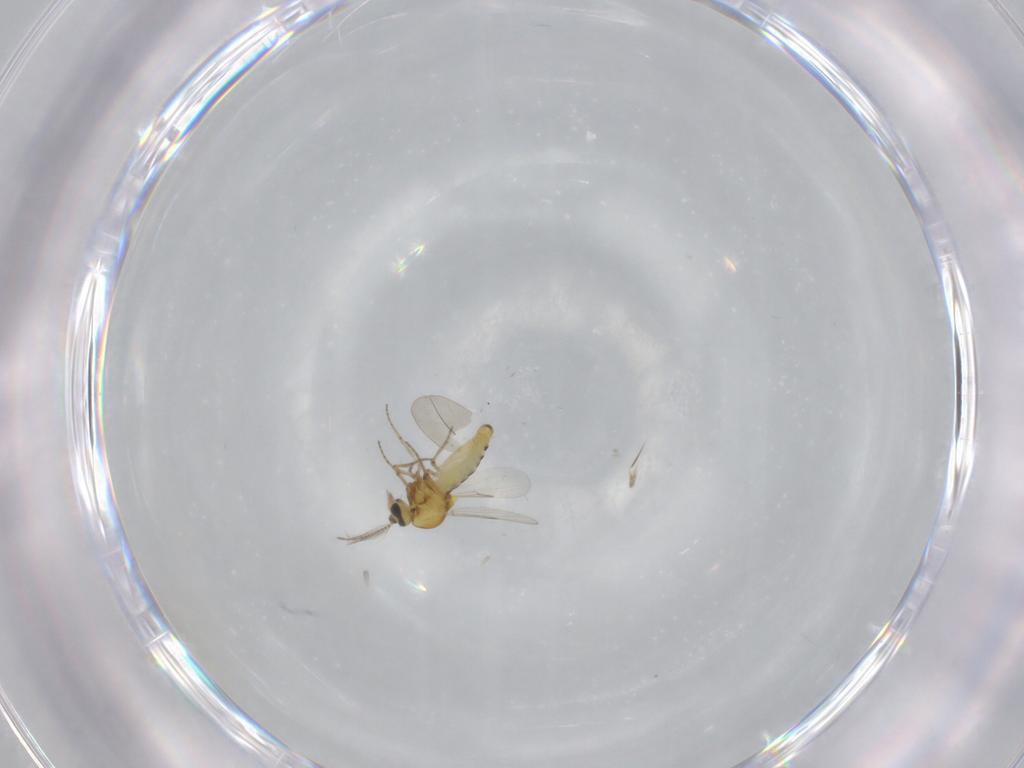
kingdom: Animalia
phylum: Arthropoda
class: Insecta
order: Diptera
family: Ceratopogonidae
